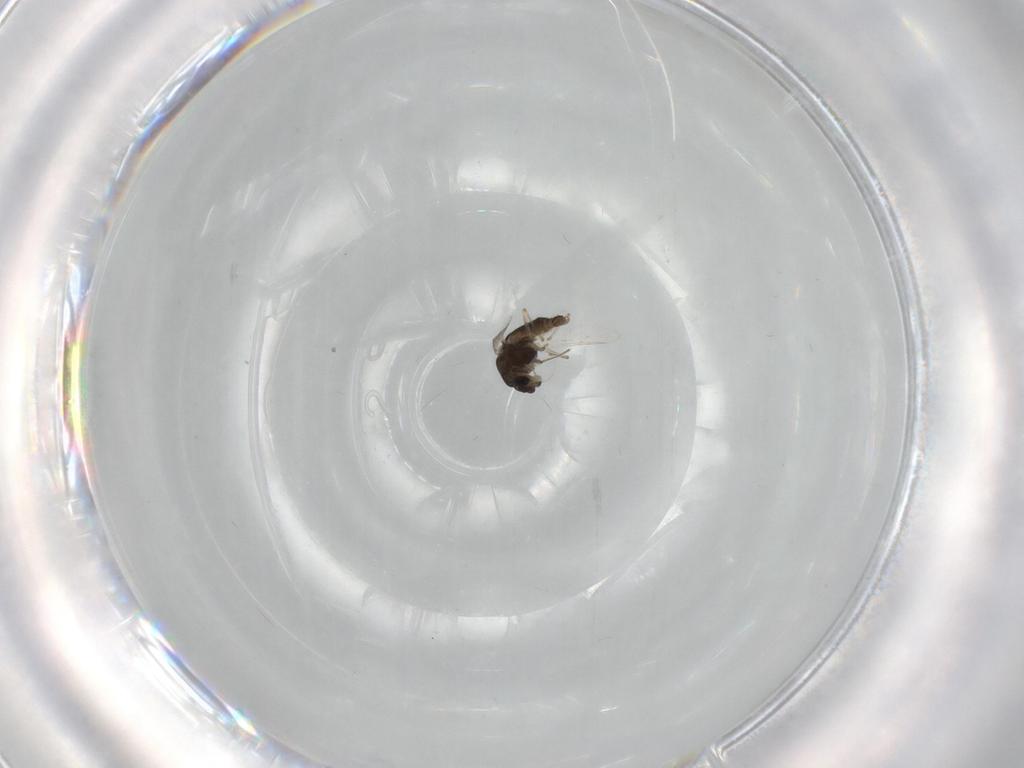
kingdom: Animalia
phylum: Arthropoda
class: Insecta
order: Diptera
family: Chironomidae
